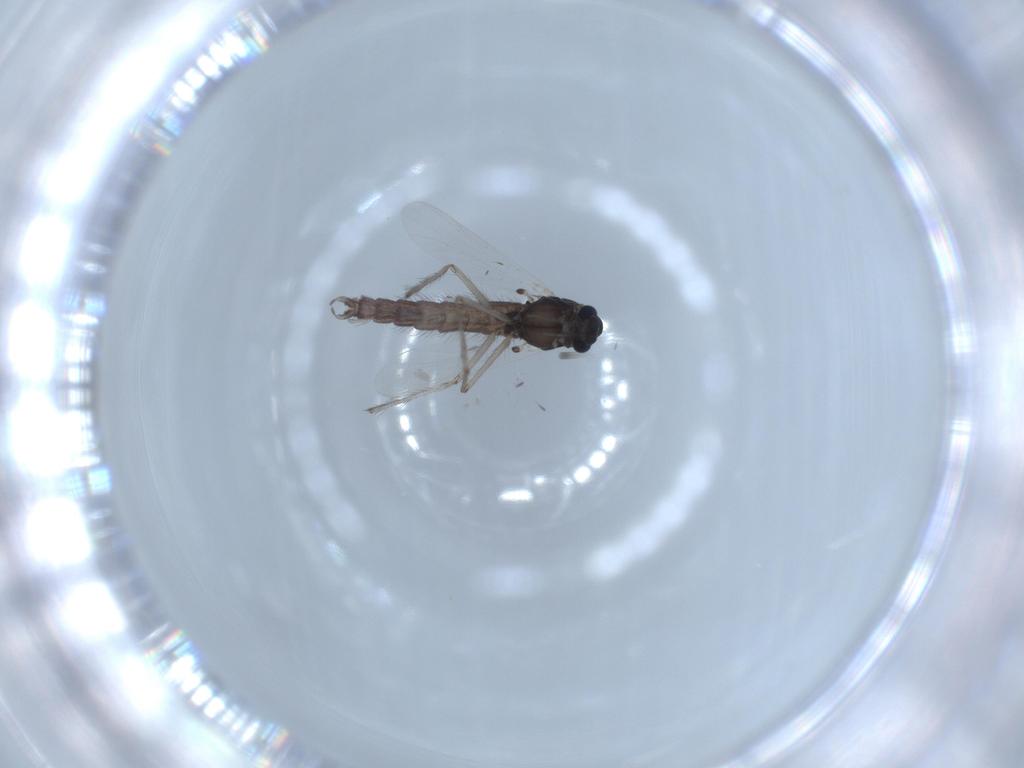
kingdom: Animalia
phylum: Arthropoda
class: Insecta
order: Diptera
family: Chironomidae
